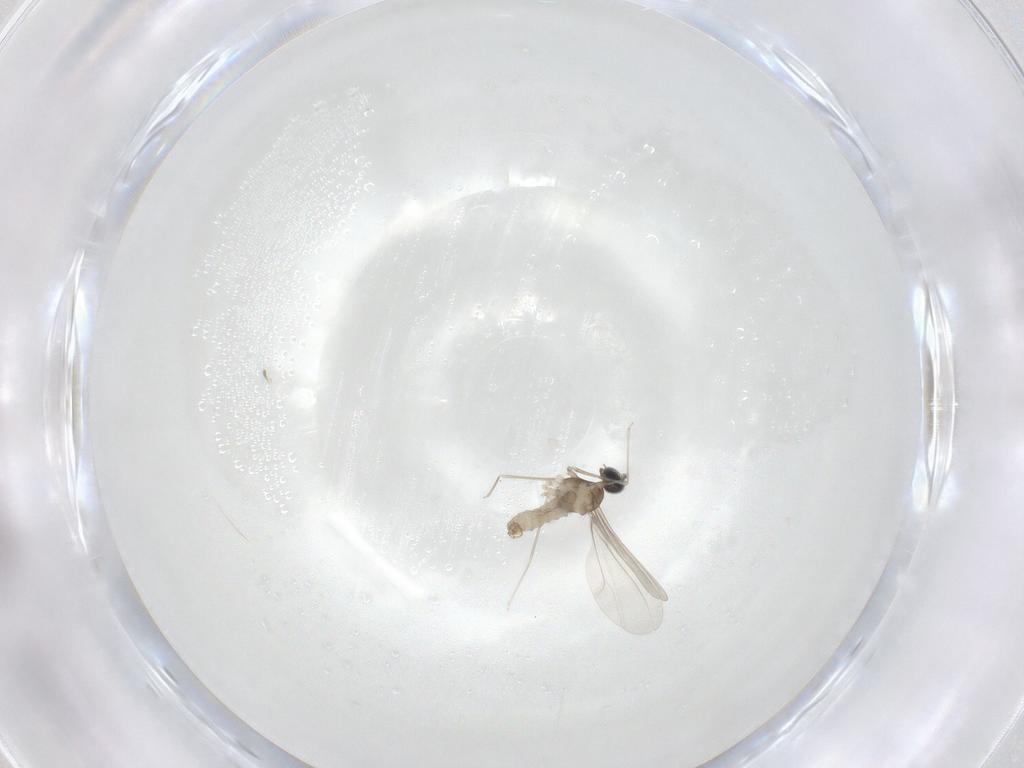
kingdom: Animalia
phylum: Arthropoda
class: Insecta
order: Diptera
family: Cecidomyiidae
